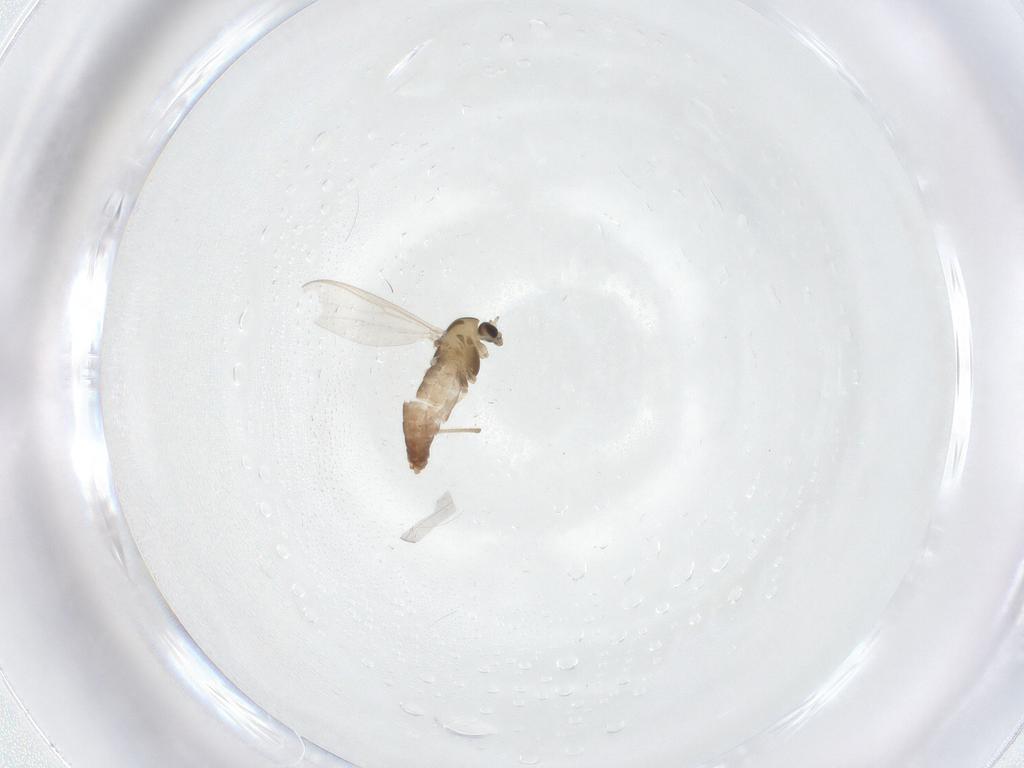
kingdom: Animalia
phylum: Arthropoda
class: Insecta
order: Diptera
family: Chironomidae
